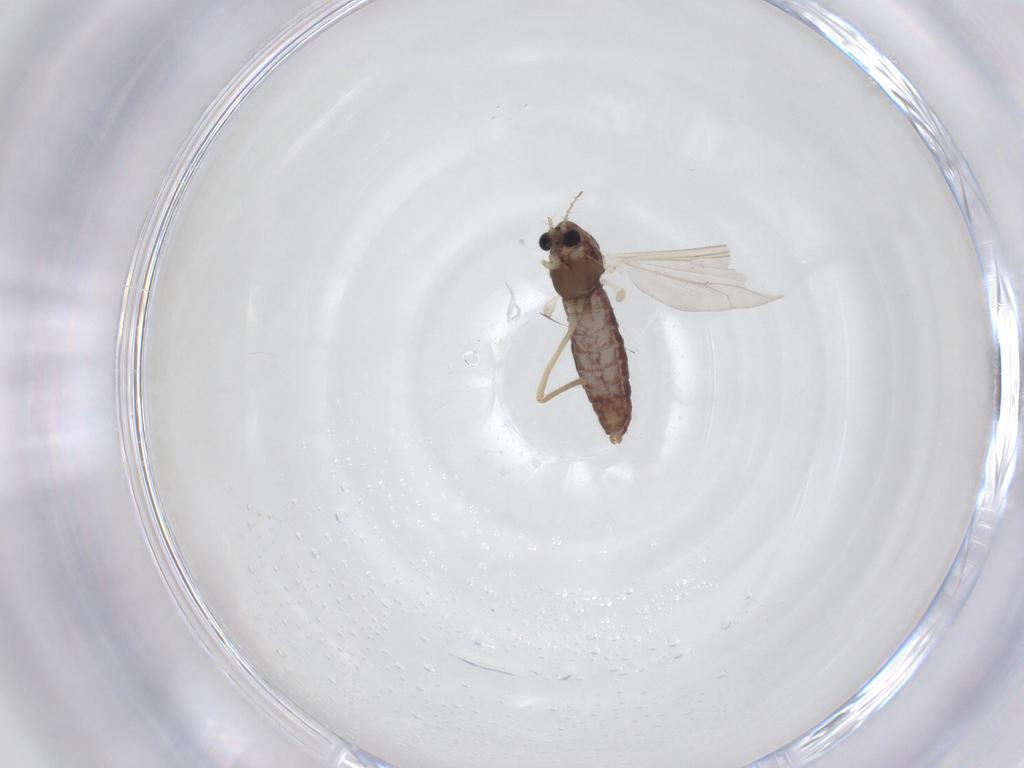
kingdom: Animalia
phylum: Arthropoda
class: Insecta
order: Diptera
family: Chironomidae
